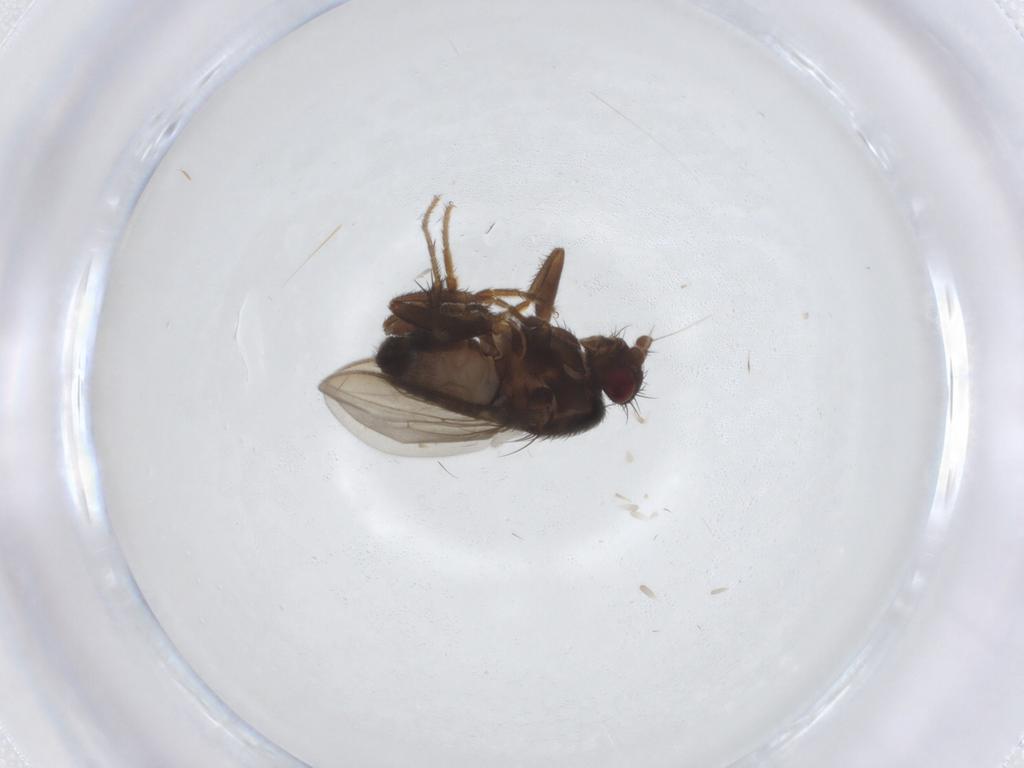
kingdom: Animalia
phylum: Arthropoda
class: Insecta
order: Diptera
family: Sphaeroceridae
